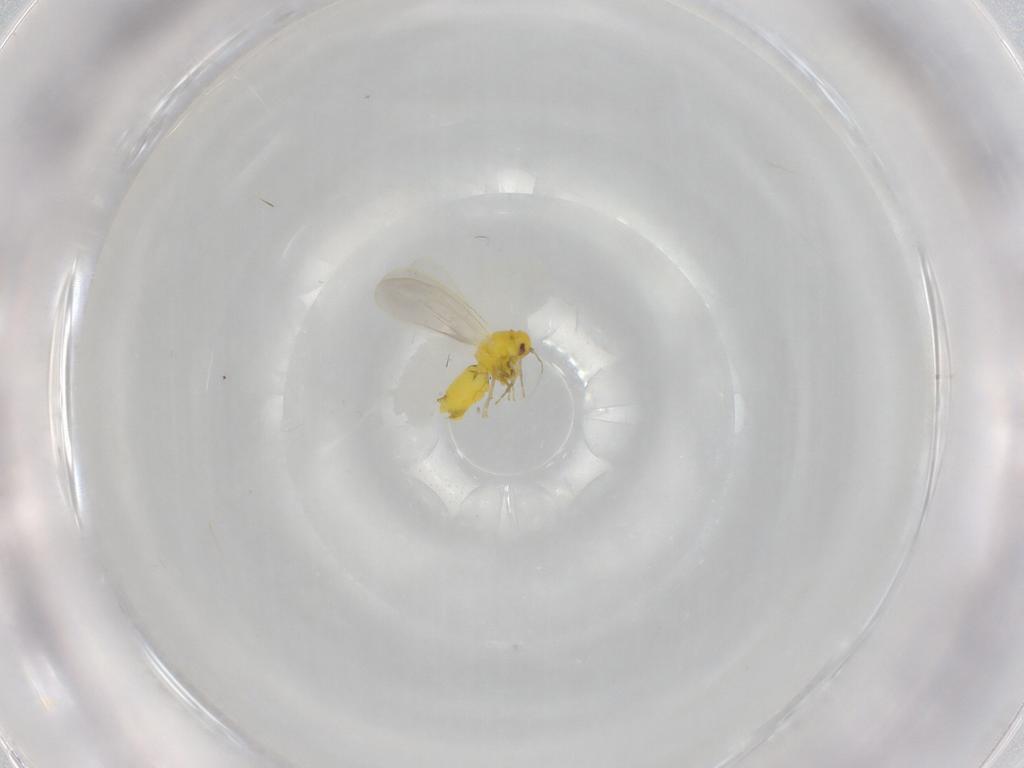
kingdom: Animalia
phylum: Arthropoda
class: Insecta
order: Hemiptera
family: Aleyrodidae
